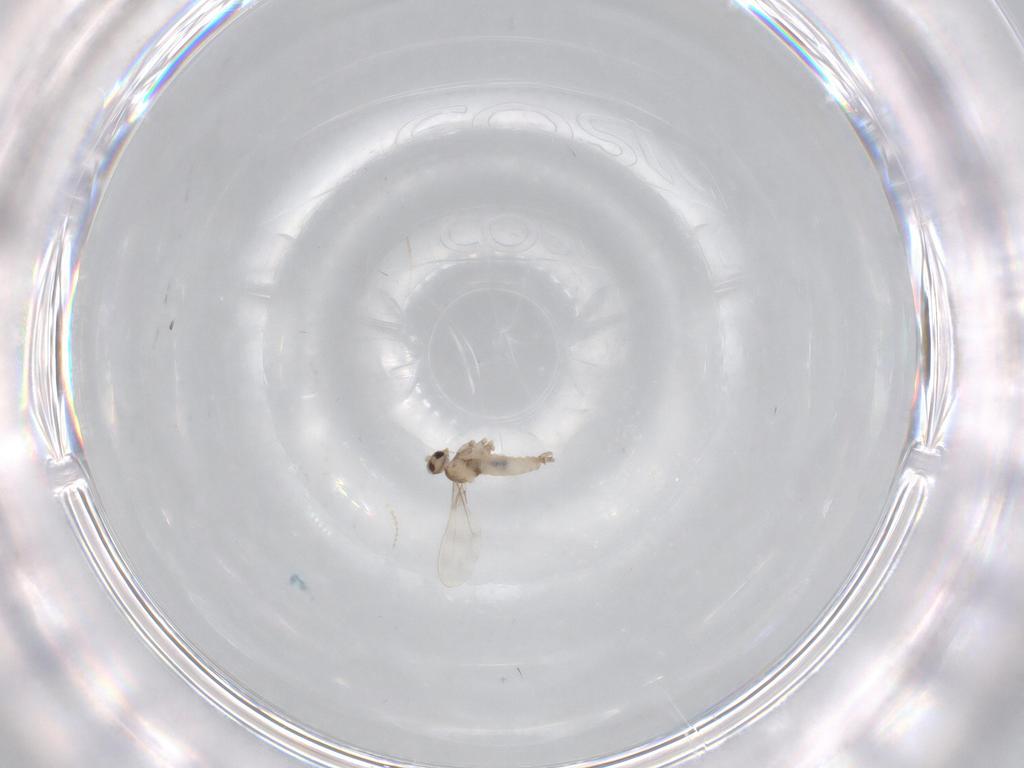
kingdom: Animalia
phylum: Arthropoda
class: Insecta
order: Diptera
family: Cecidomyiidae
